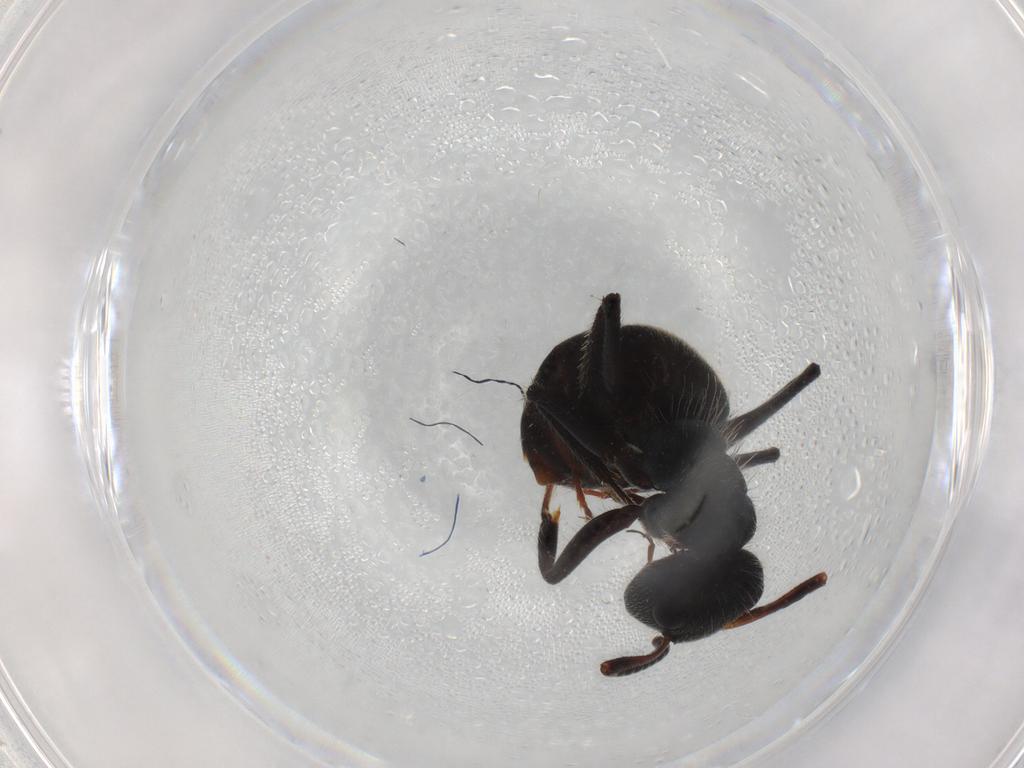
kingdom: Animalia
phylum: Arthropoda
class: Insecta
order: Hymenoptera
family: Formicidae
